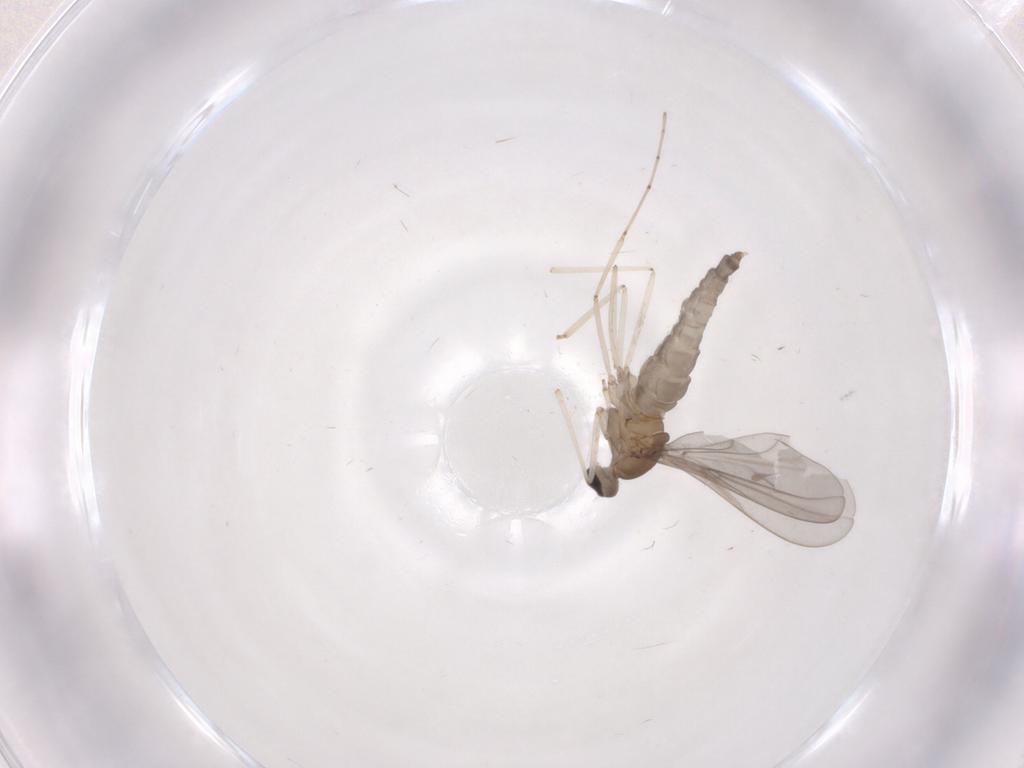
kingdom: Animalia
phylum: Arthropoda
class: Insecta
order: Diptera
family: Cecidomyiidae
